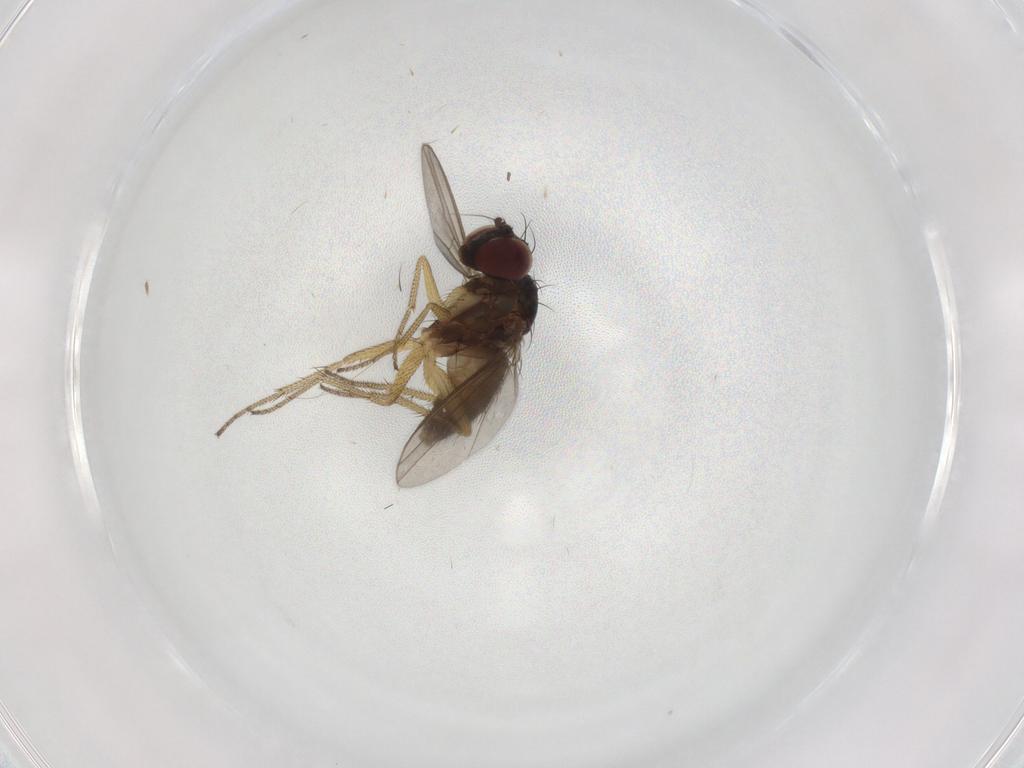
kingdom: Animalia
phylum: Arthropoda
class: Insecta
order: Diptera
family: Dolichopodidae
